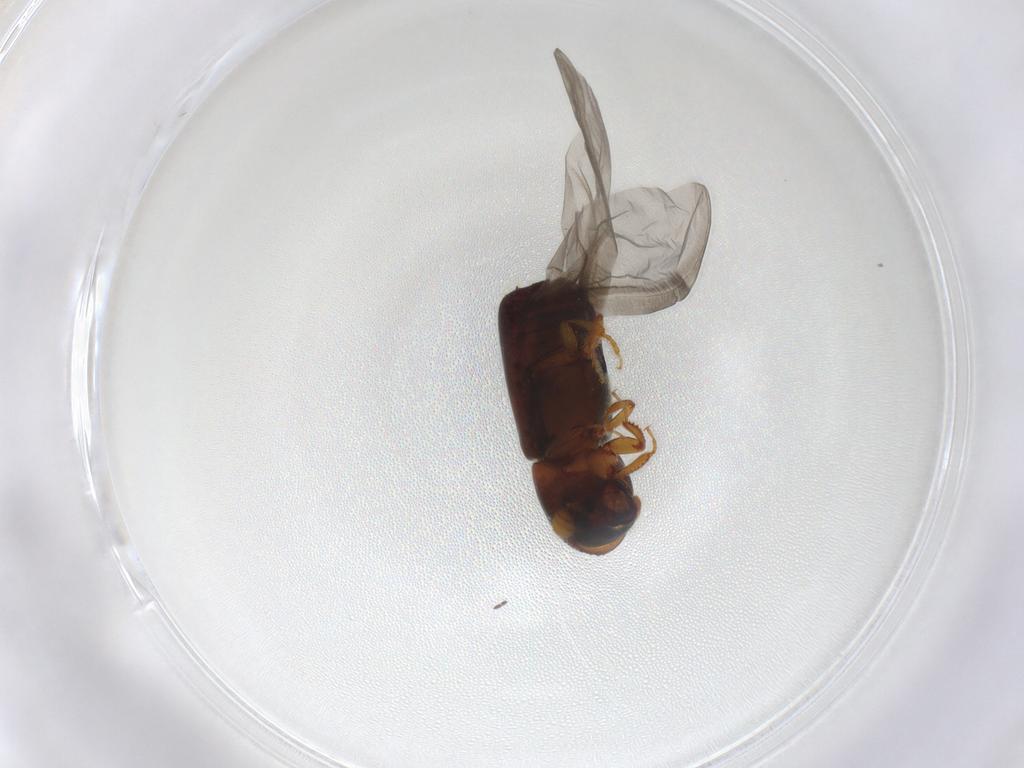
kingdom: Animalia
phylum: Arthropoda
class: Insecta
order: Coleoptera
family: Curculionidae
